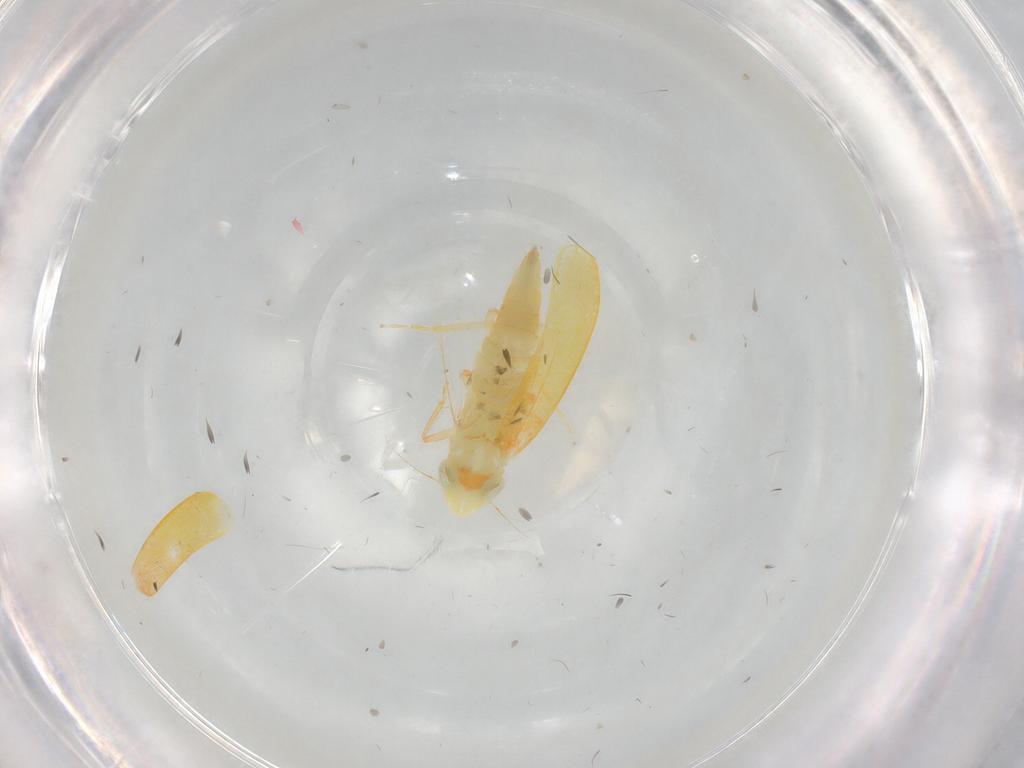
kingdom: Animalia
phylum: Arthropoda
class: Insecta
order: Hemiptera
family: Cicadellidae
